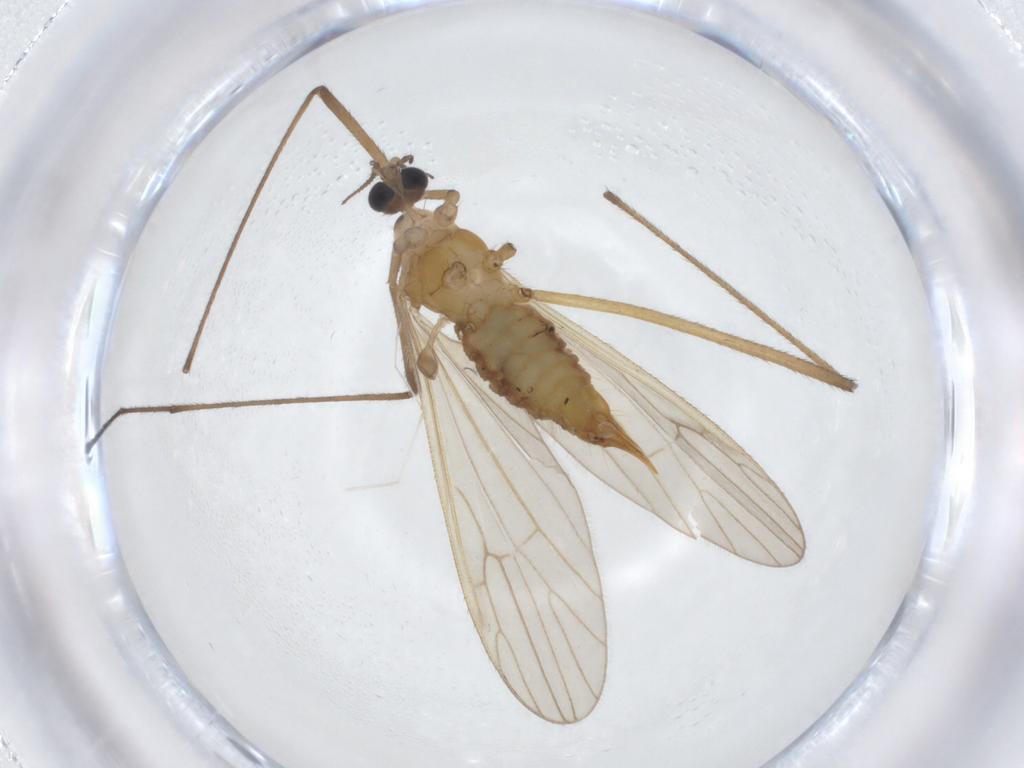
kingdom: Animalia
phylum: Arthropoda
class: Insecta
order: Diptera
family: Limoniidae
